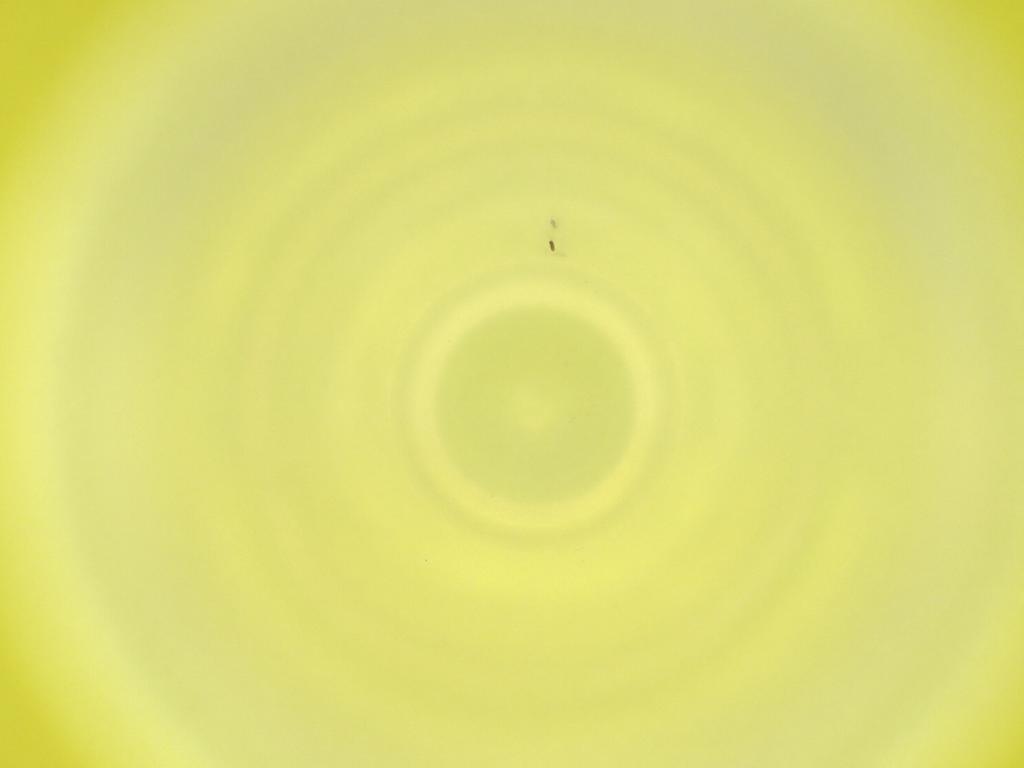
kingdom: Animalia
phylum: Arthropoda
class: Insecta
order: Diptera
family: Cecidomyiidae
